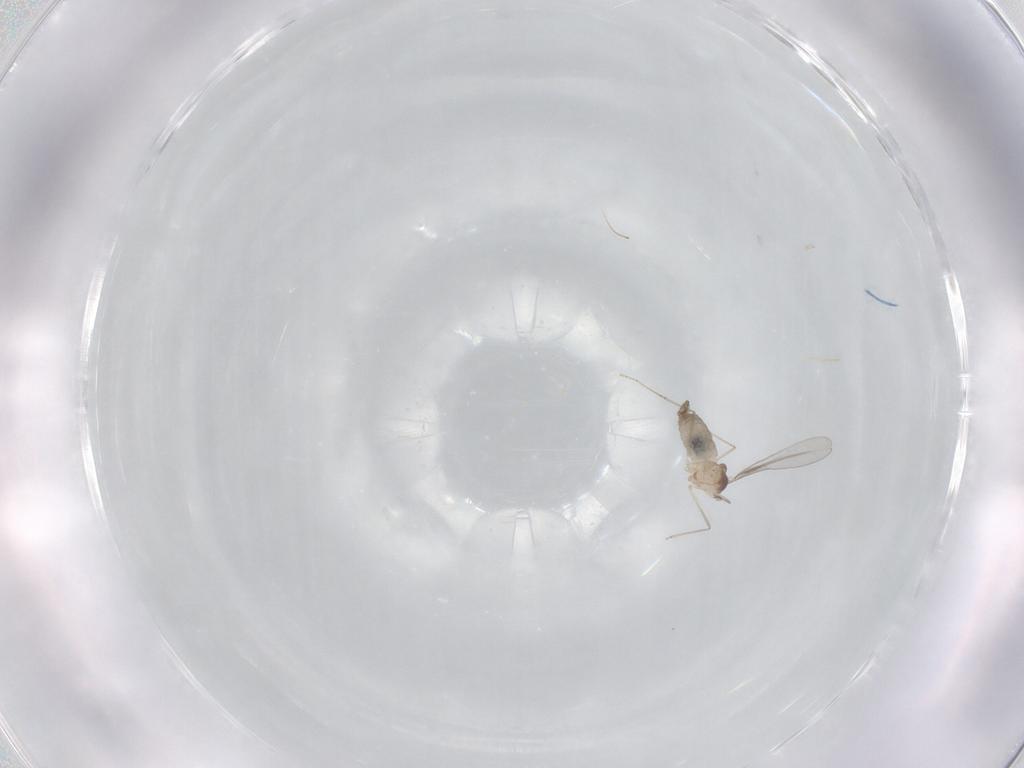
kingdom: Animalia
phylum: Arthropoda
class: Insecta
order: Diptera
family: Cecidomyiidae
